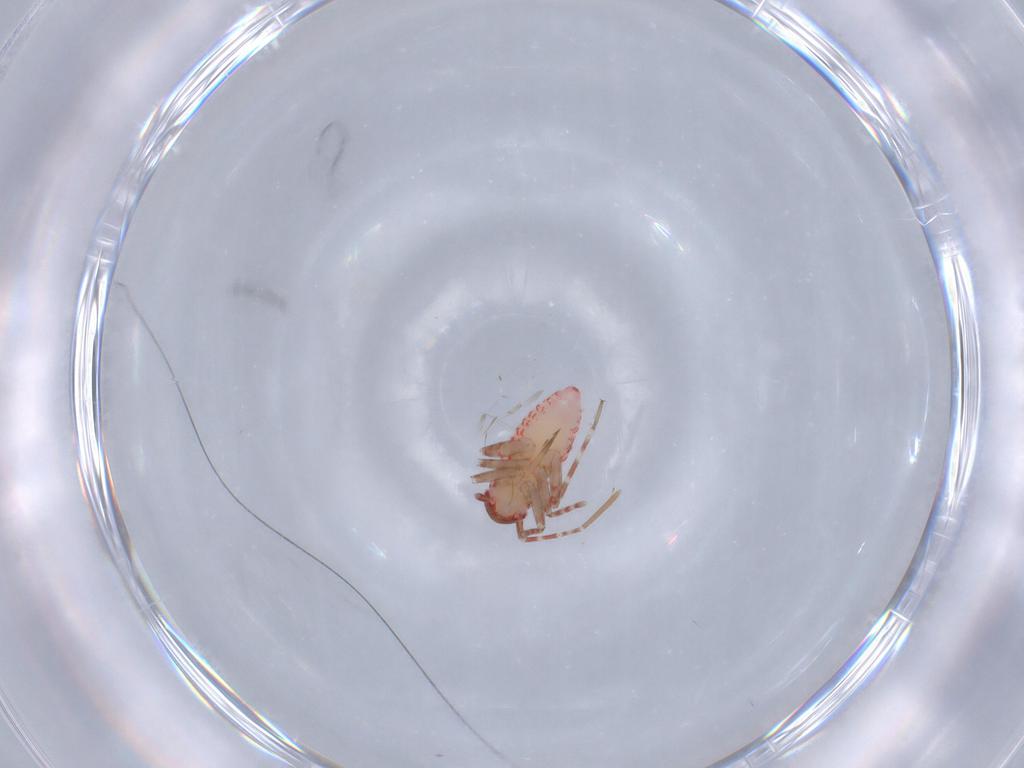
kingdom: Animalia
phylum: Arthropoda
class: Insecta
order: Hemiptera
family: Miridae
